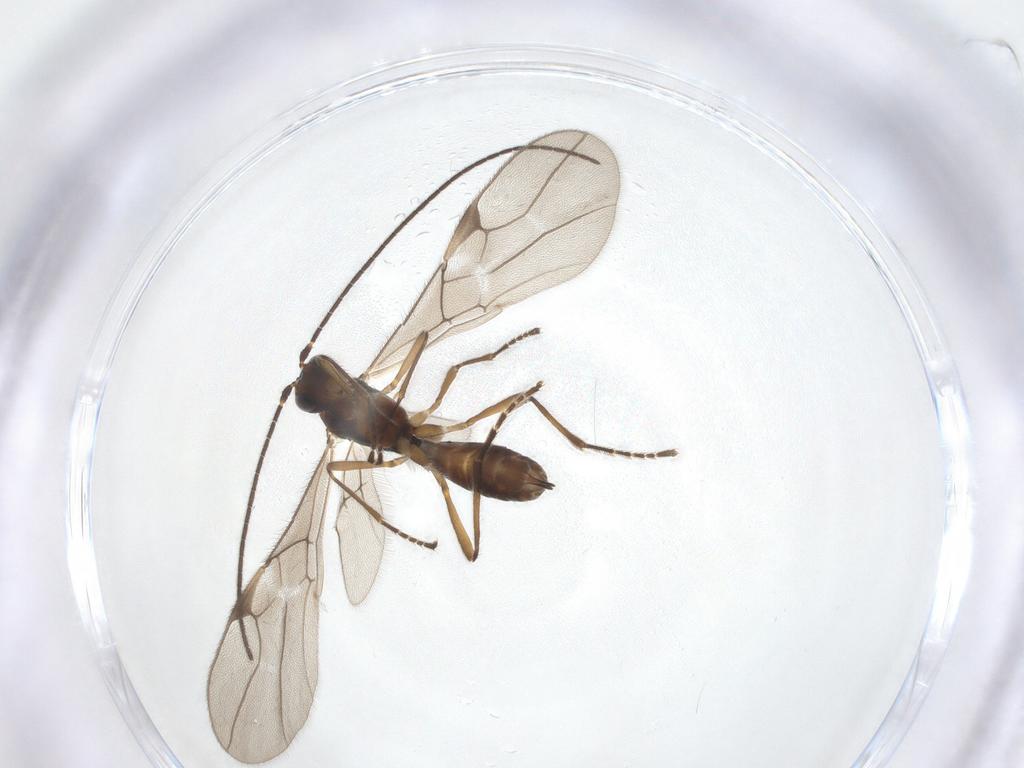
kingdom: Animalia
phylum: Arthropoda
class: Insecta
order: Hymenoptera
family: Braconidae
